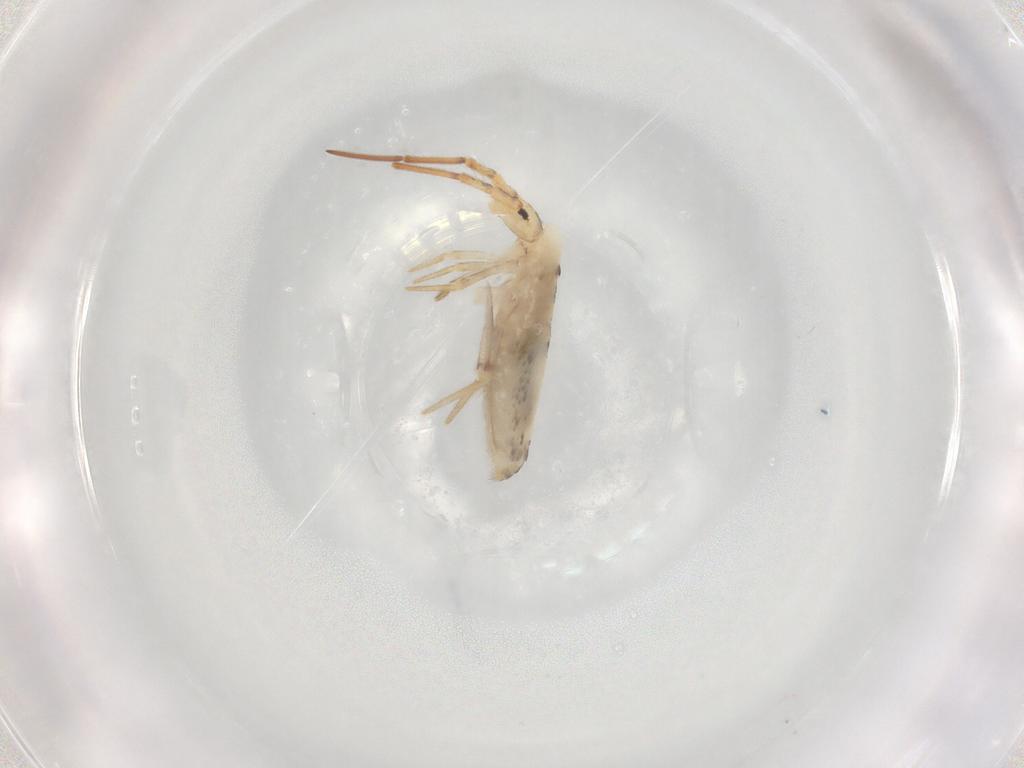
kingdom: Animalia
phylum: Arthropoda
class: Collembola
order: Poduromorpha
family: Hypogastruridae
